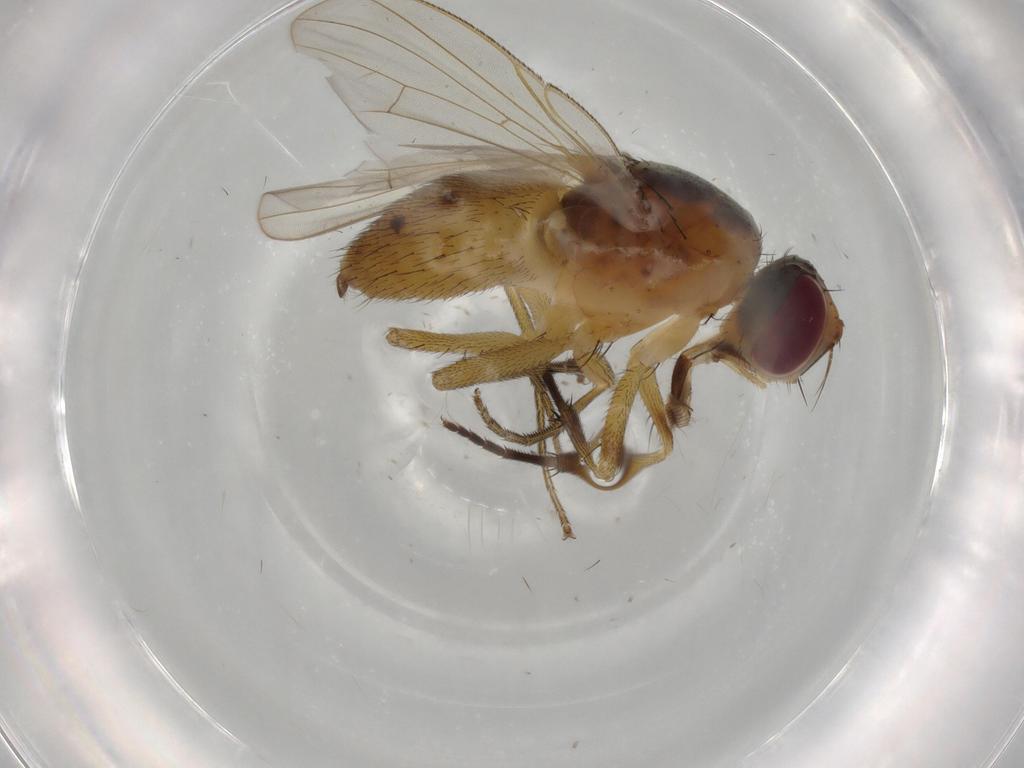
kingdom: Animalia
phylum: Arthropoda
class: Insecta
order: Diptera
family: Muscidae
